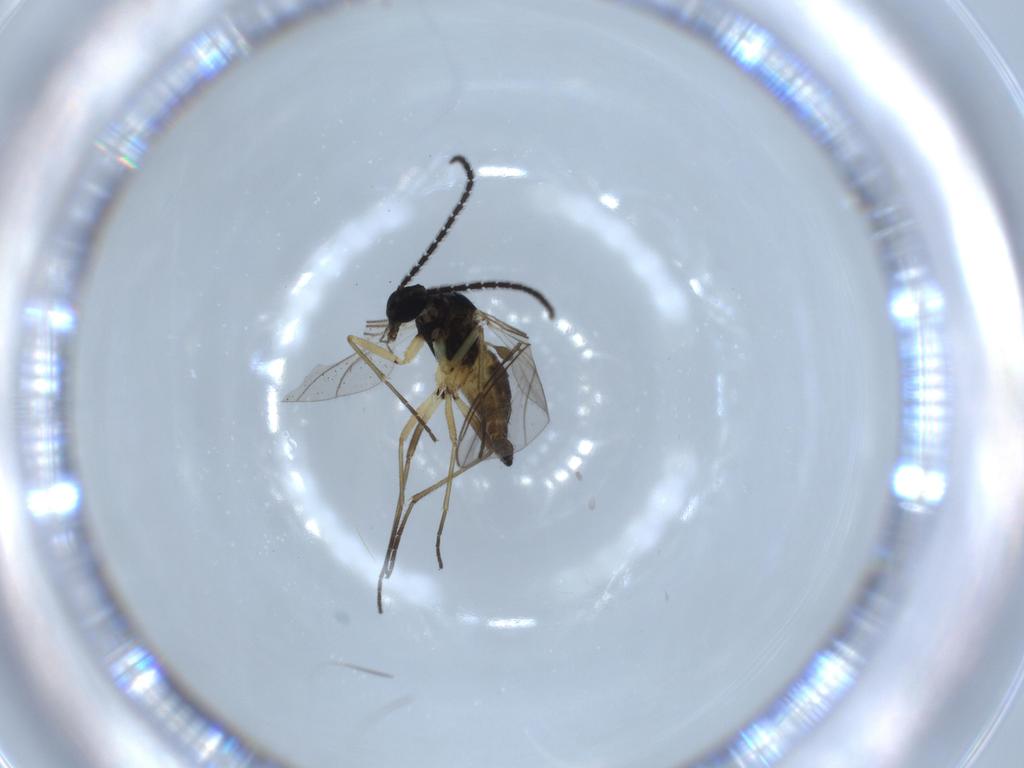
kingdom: Animalia
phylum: Arthropoda
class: Insecta
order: Diptera
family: Sciaridae
